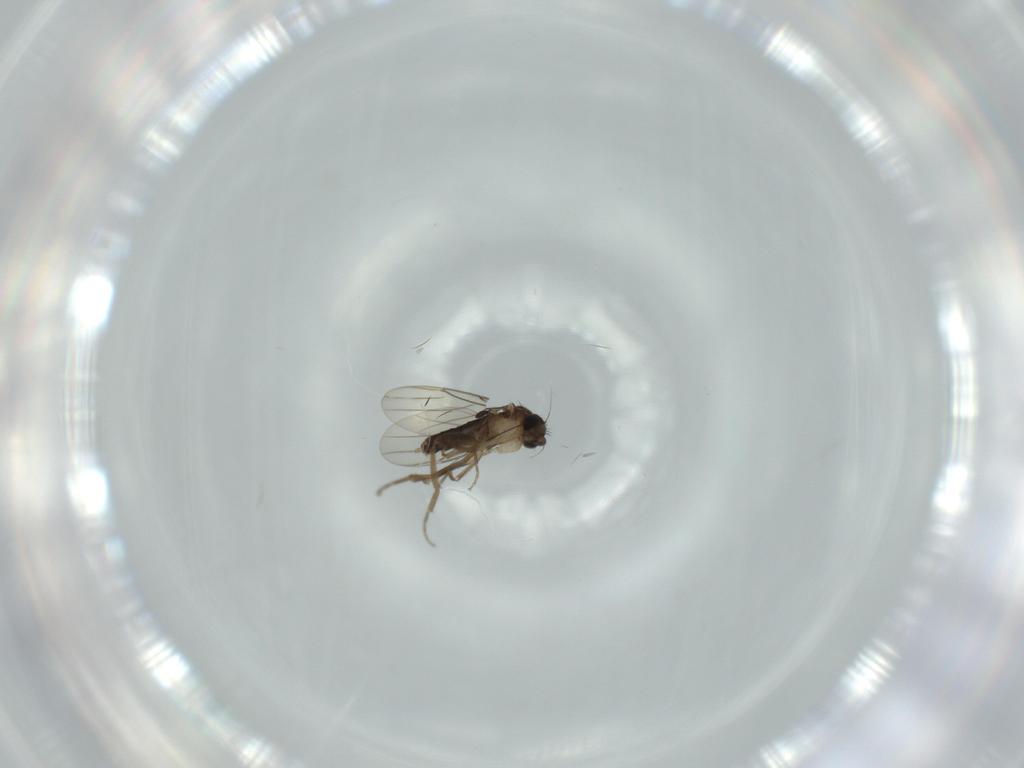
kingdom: Animalia
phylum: Arthropoda
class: Insecta
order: Diptera
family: Phoridae
